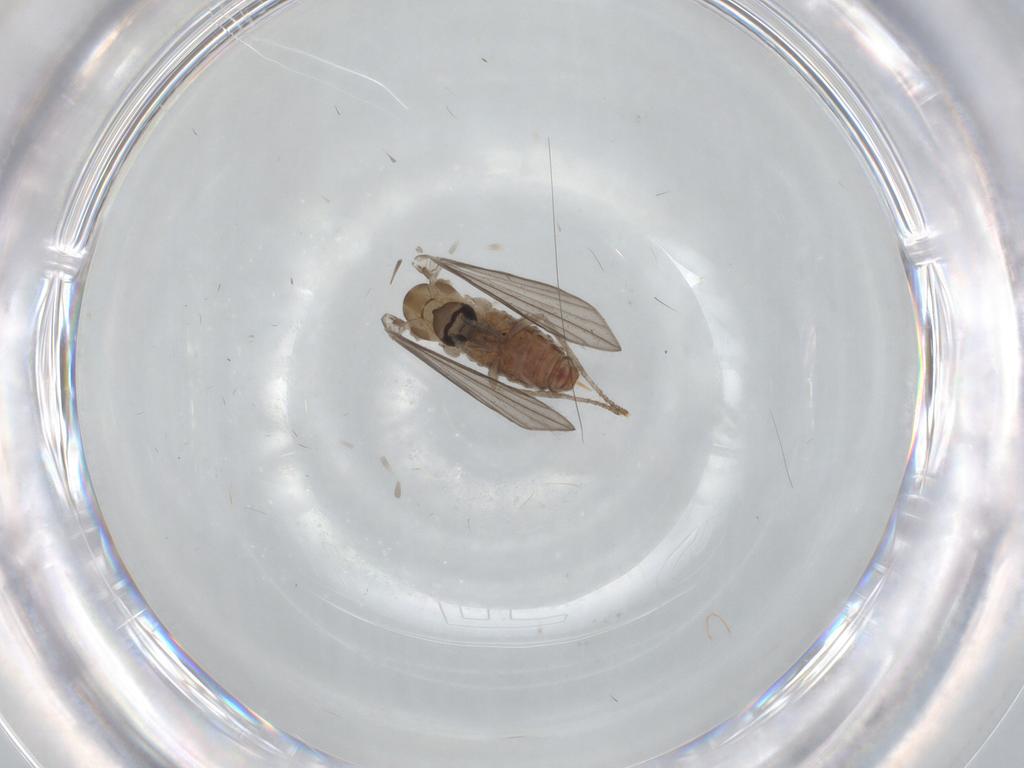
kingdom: Animalia
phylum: Arthropoda
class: Insecta
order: Diptera
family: Psychodidae
